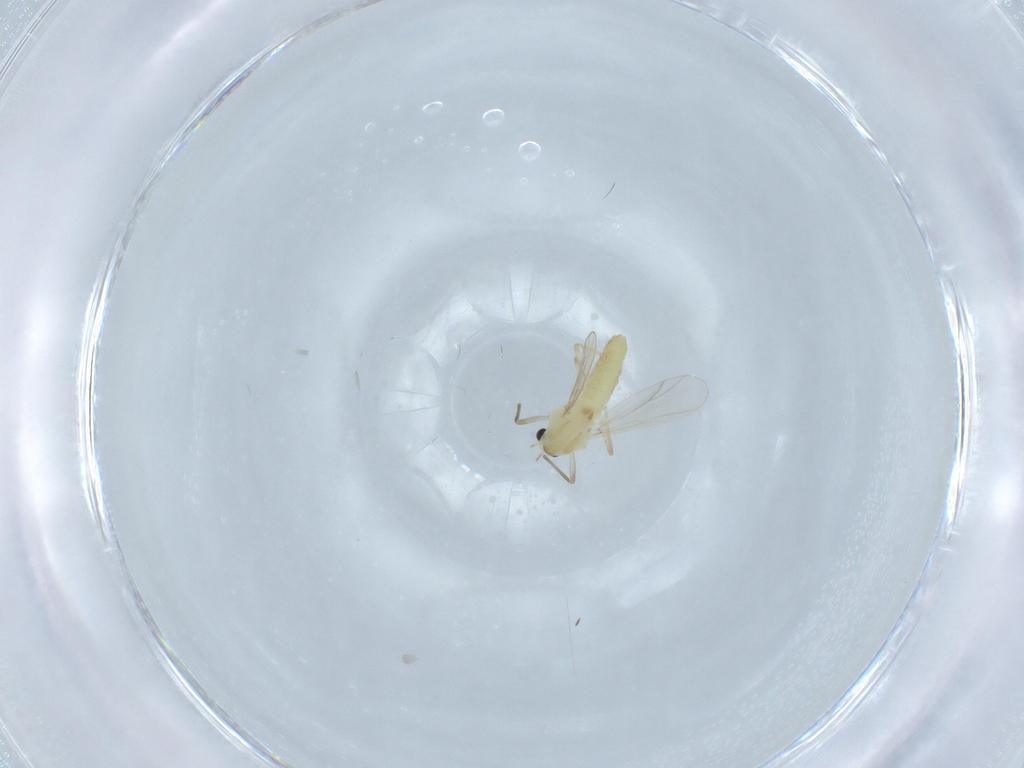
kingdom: Animalia
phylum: Arthropoda
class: Insecta
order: Diptera
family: Chironomidae
